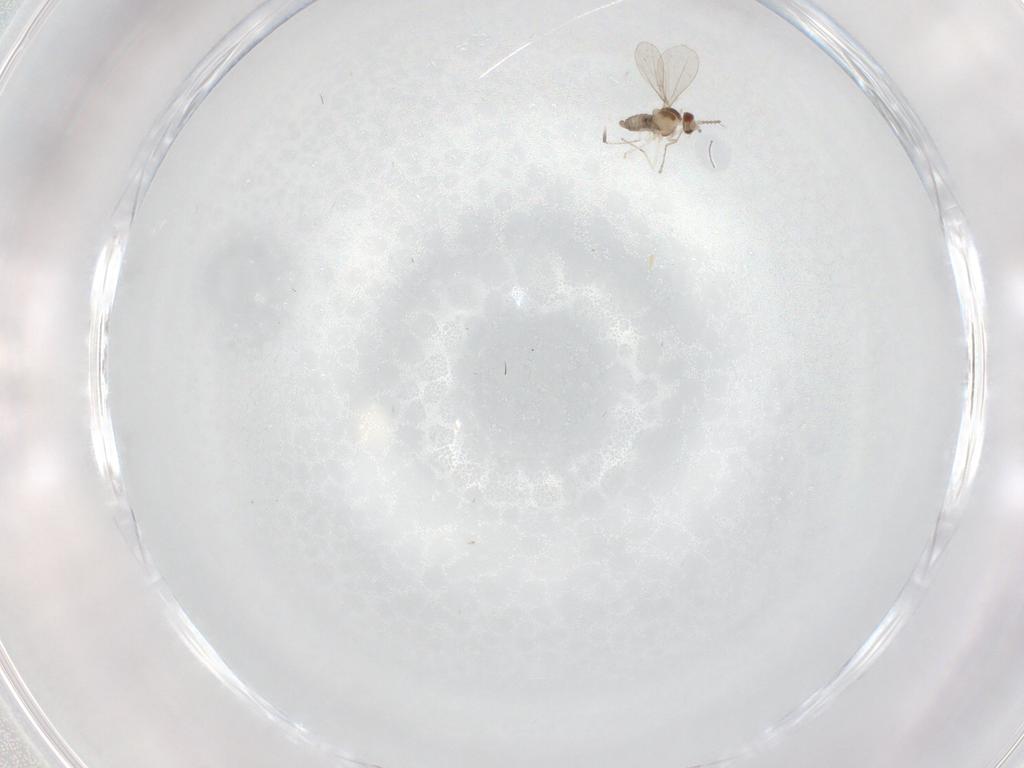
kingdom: Animalia
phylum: Arthropoda
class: Insecta
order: Diptera
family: Cecidomyiidae
